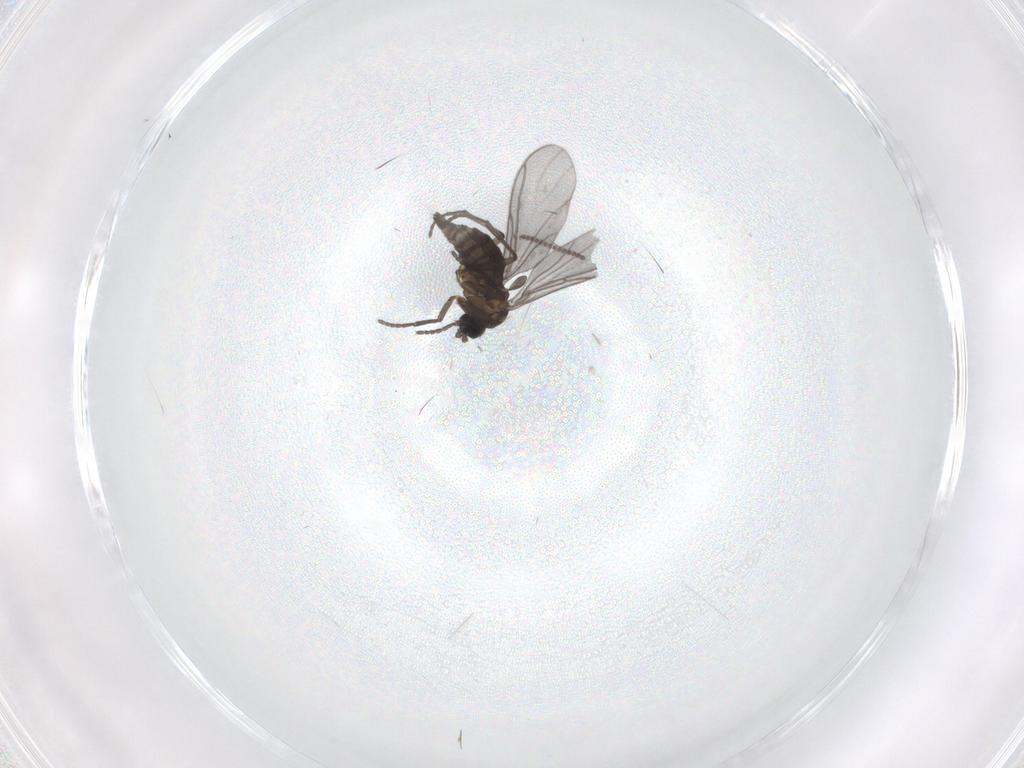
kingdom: Animalia
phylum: Arthropoda
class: Insecta
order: Diptera
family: Cecidomyiidae
